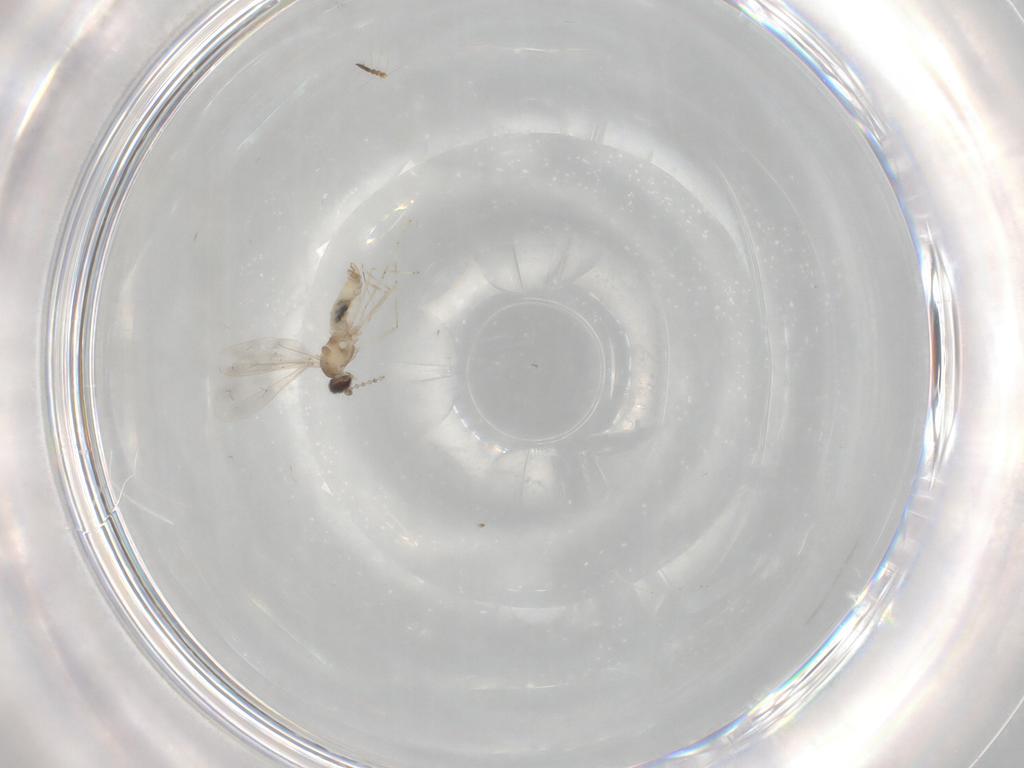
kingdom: Animalia
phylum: Arthropoda
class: Insecta
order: Diptera
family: Cecidomyiidae
